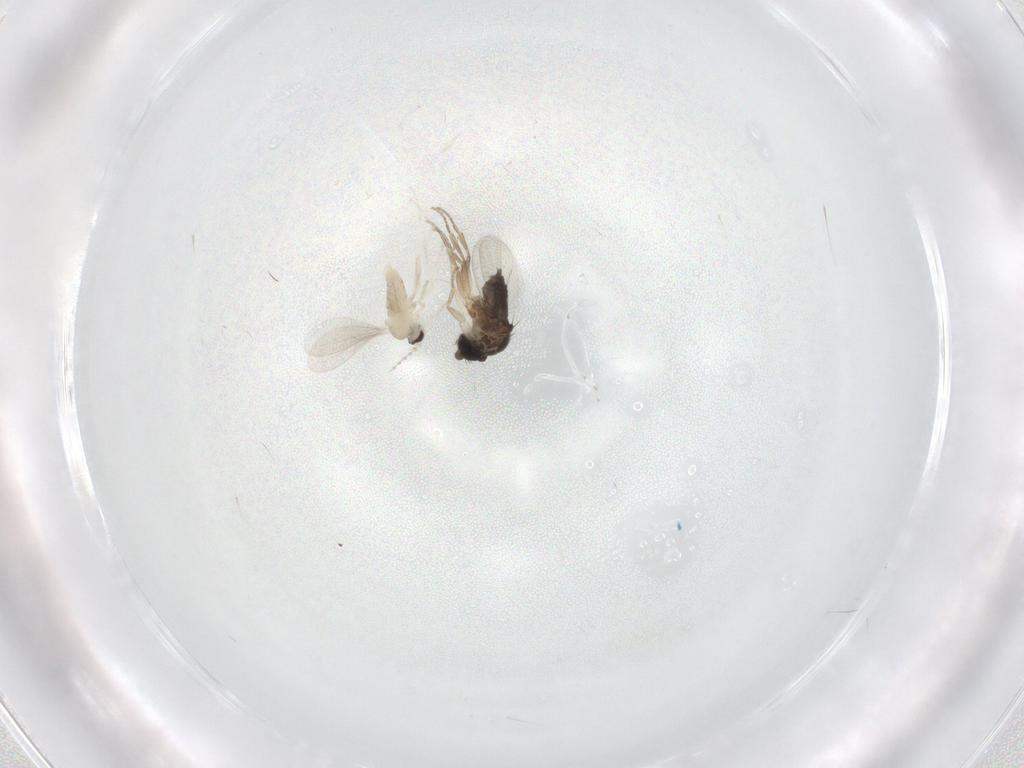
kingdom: Animalia
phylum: Arthropoda
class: Insecta
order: Diptera
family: Phoridae
